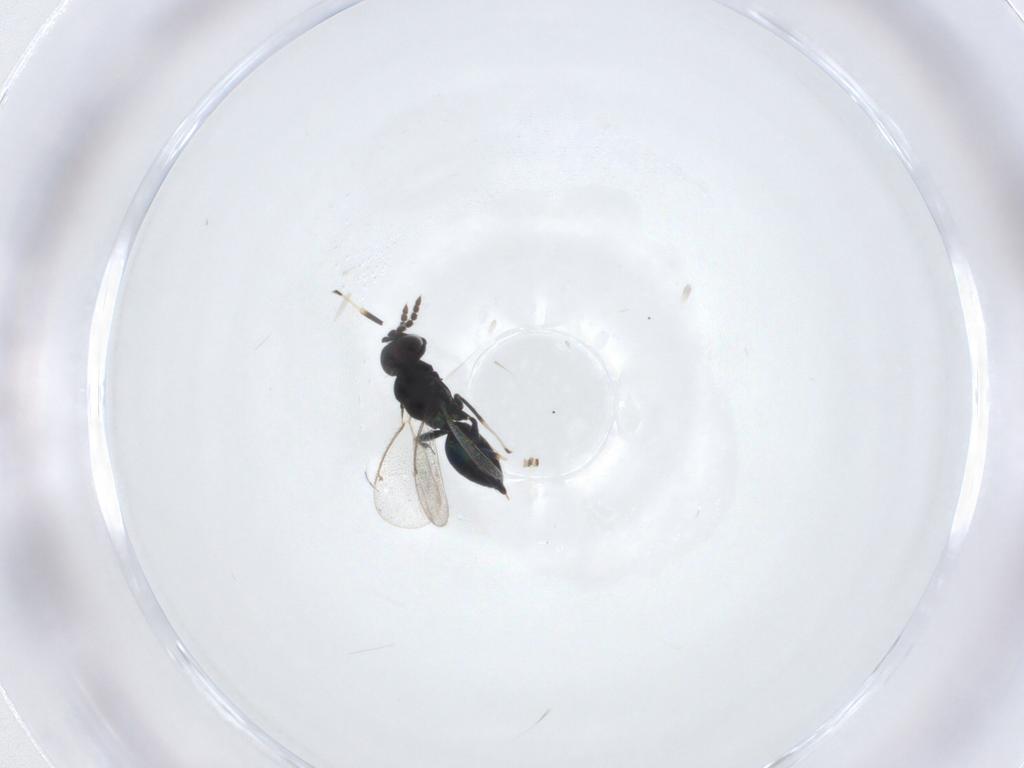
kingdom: Animalia
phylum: Arthropoda
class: Insecta
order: Hymenoptera
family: Eulophidae
